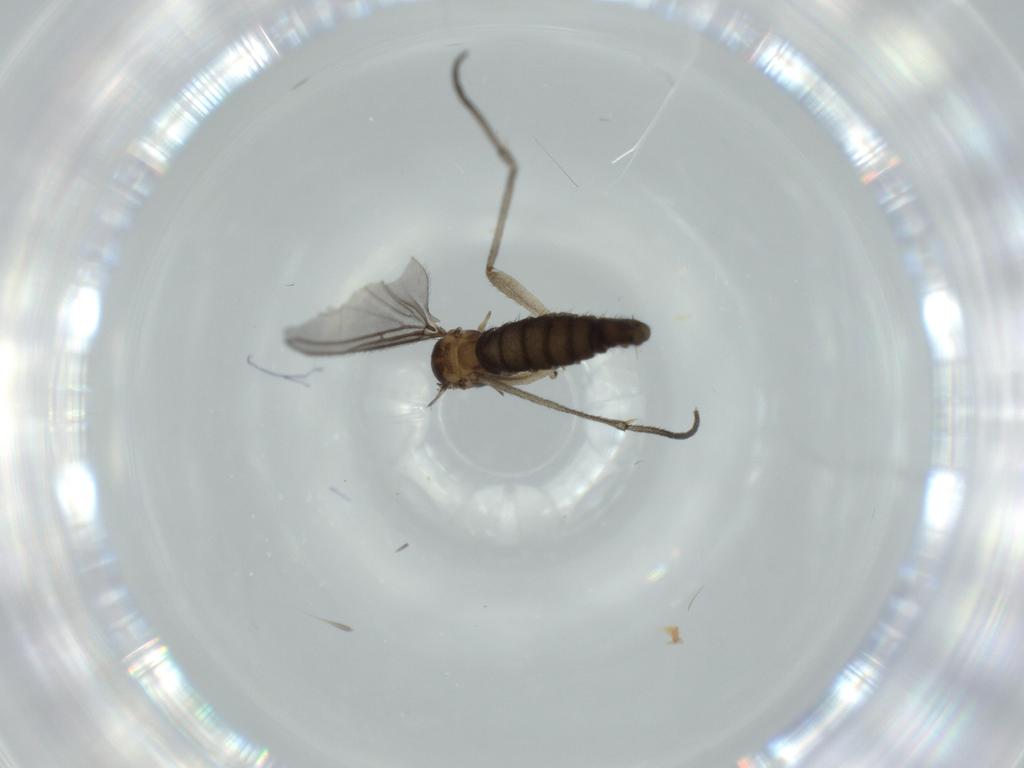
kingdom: Animalia
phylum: Arthropoda
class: Insecta
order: Diptera
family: Sciaridae
